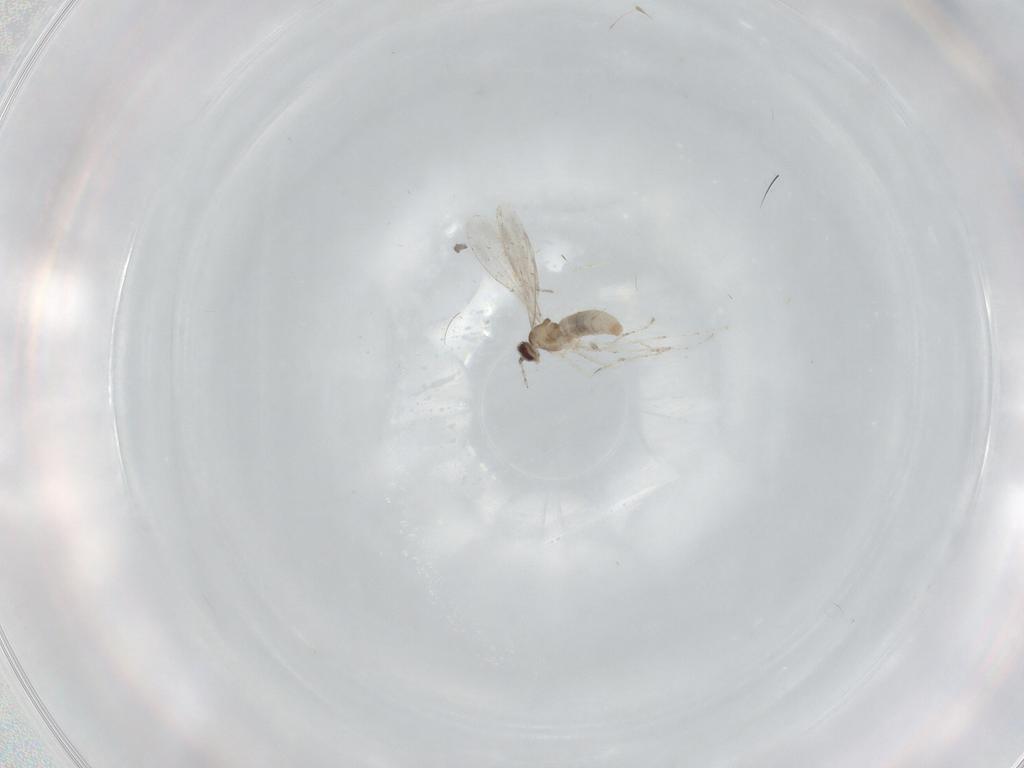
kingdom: Animalia
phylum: Arthropoda
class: Insecta
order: Diptera
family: Cecidomyiidae
